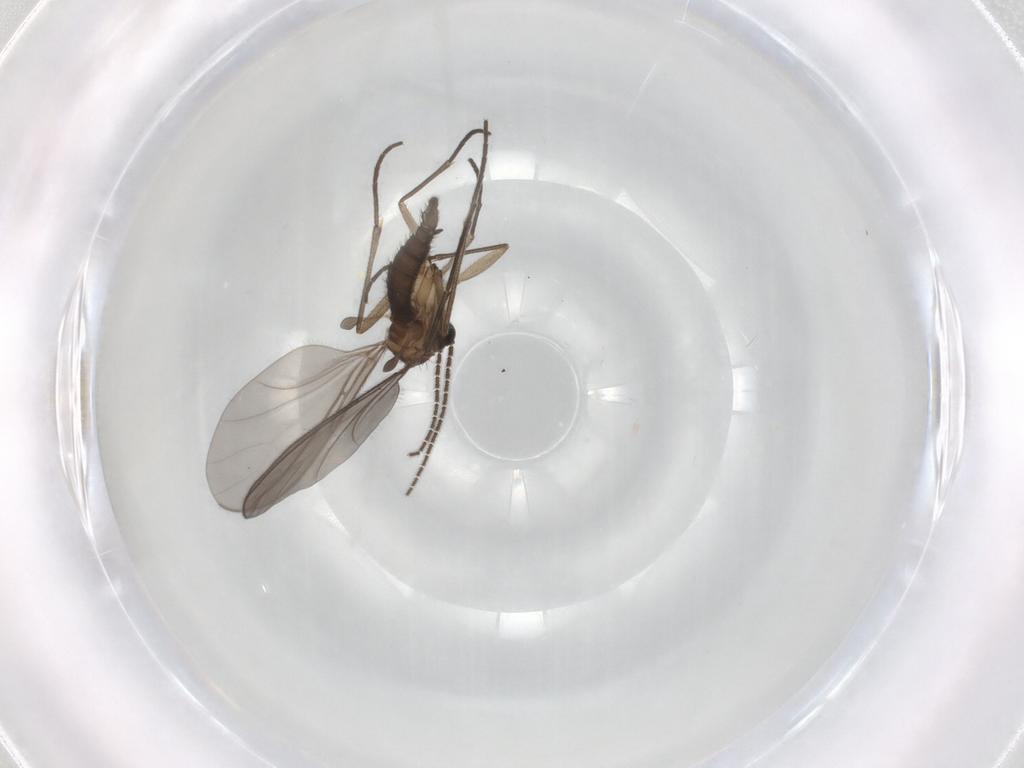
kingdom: Animalia
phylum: Arthropoda
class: Insecta
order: Diptera
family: Sciaridae
